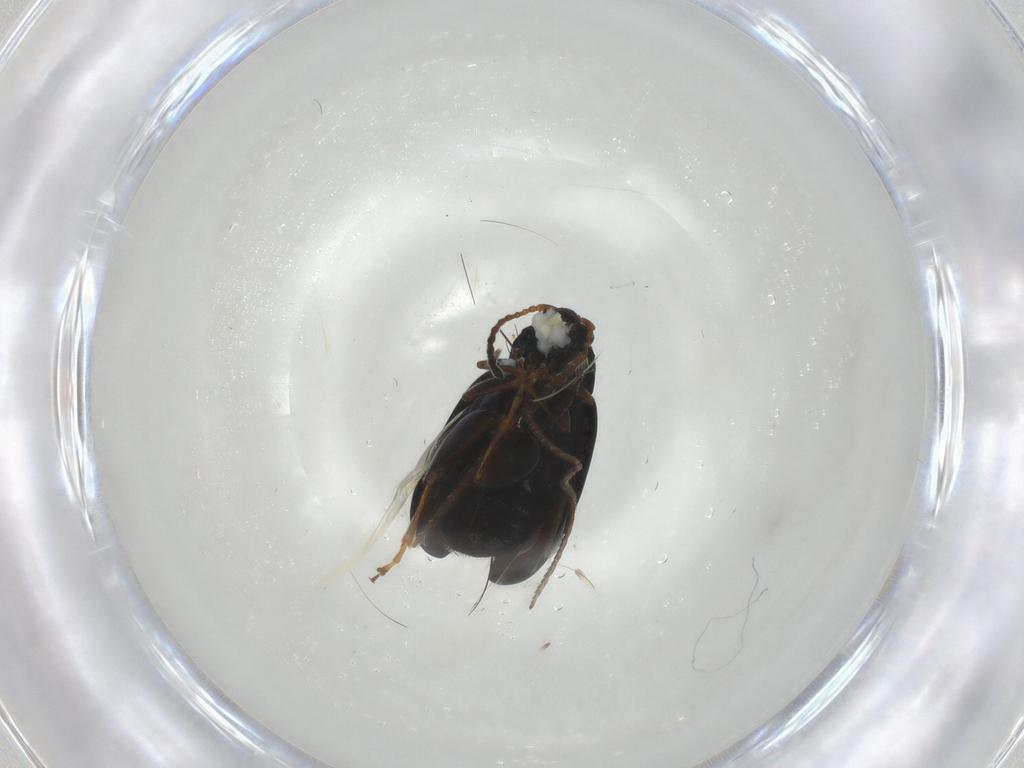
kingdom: Animalia
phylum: Arthropoda
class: Insecta
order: Coleoptera
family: Chrysomelidae
